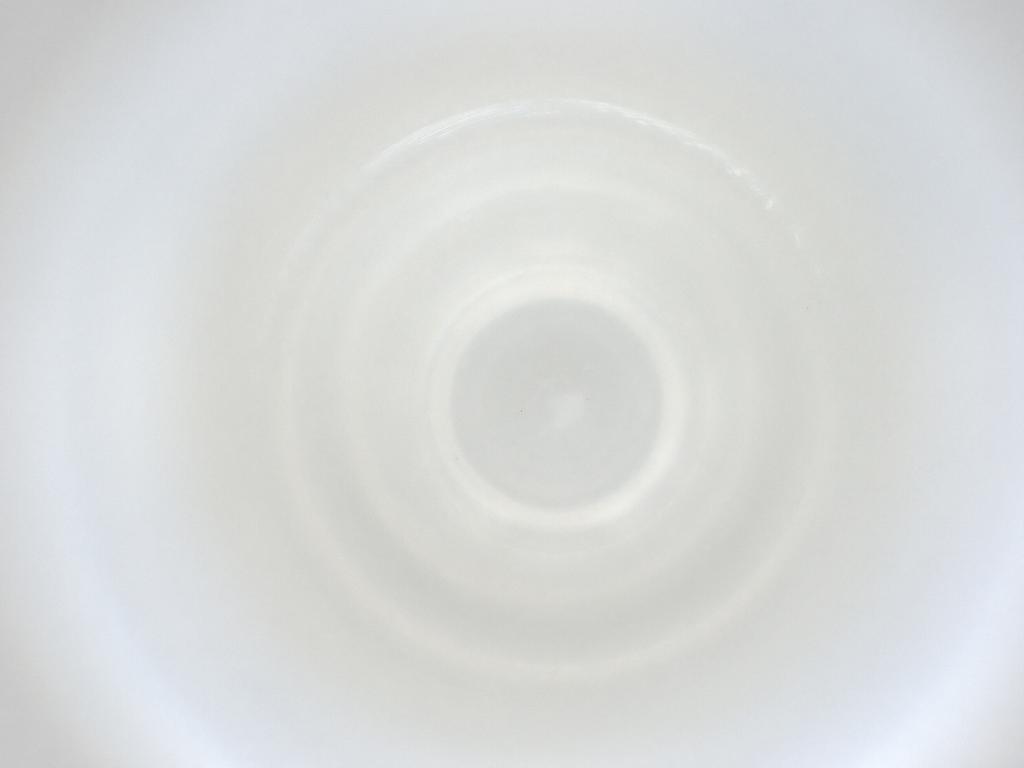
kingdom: Animalia
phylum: Arthropoda
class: Insecta
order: Diptera
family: Cecidomyiidae
